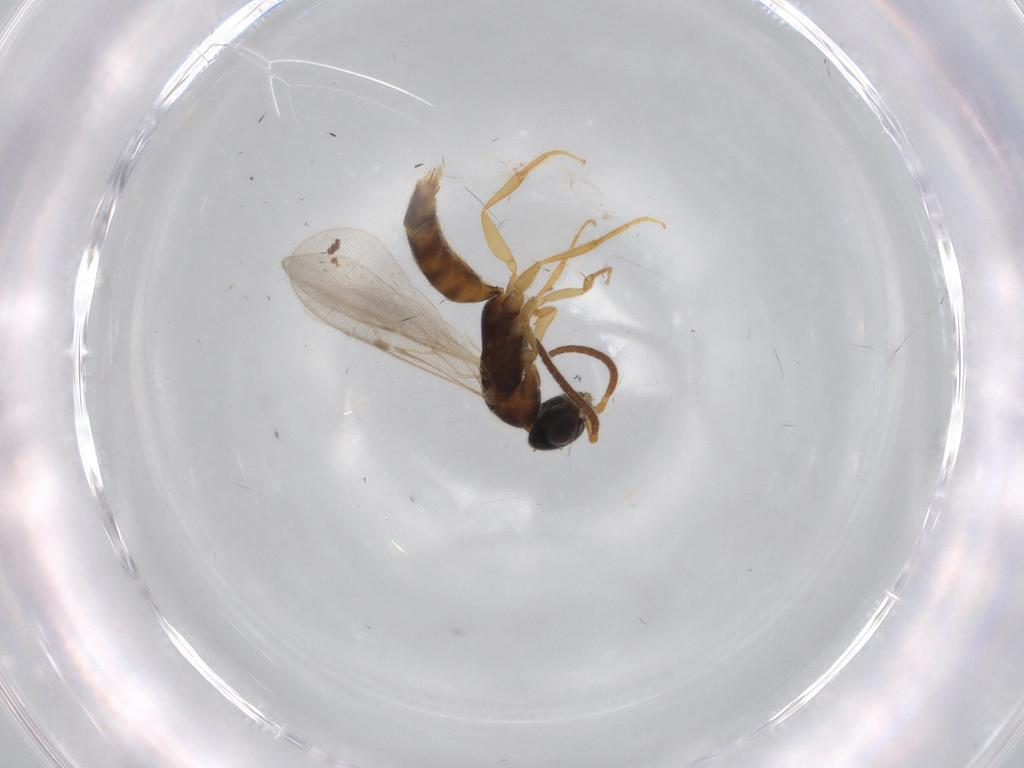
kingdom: Animalia
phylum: Arthropoda
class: Insecta
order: Hymenoptera
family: Bethylidae
